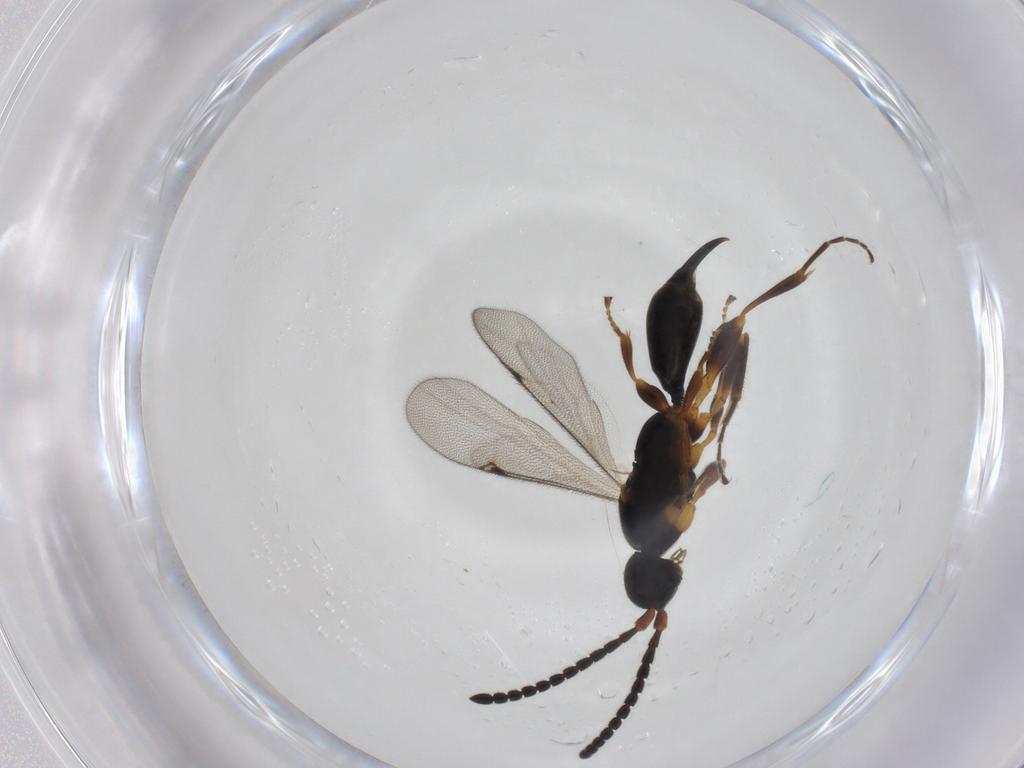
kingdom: Animalia
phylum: Arthropoda
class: Insecta
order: Hymenoptera
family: Proctotrupidae
